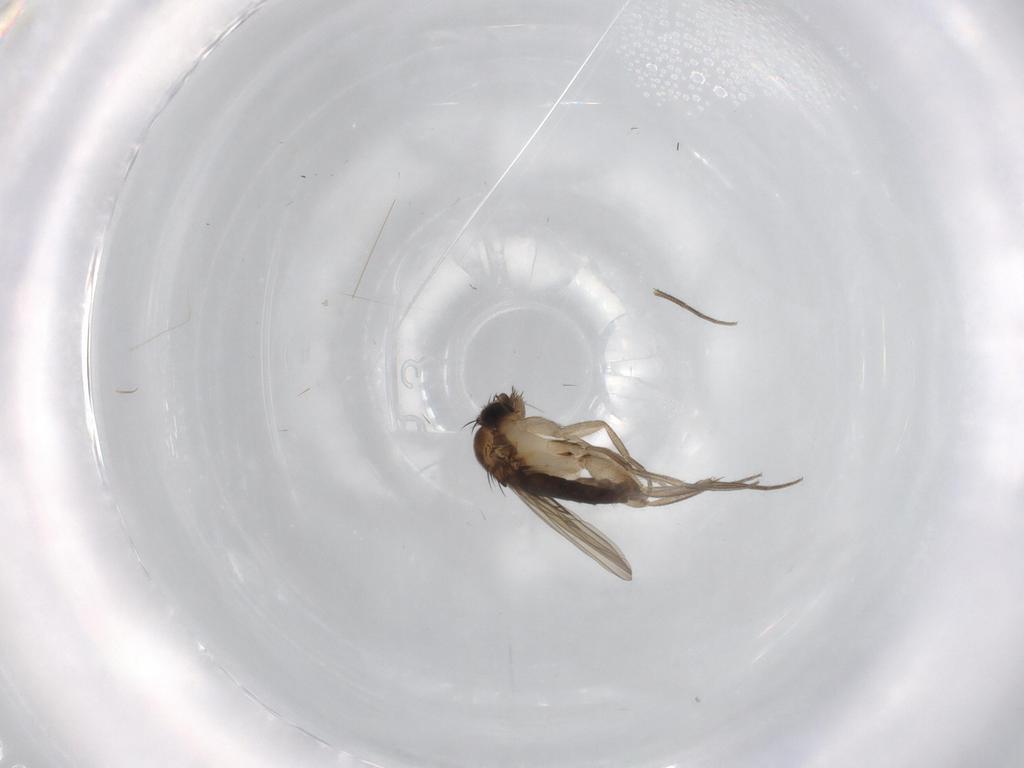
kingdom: Animalia
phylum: Arthropoda
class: Insecta
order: Diptera
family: Phoridae
